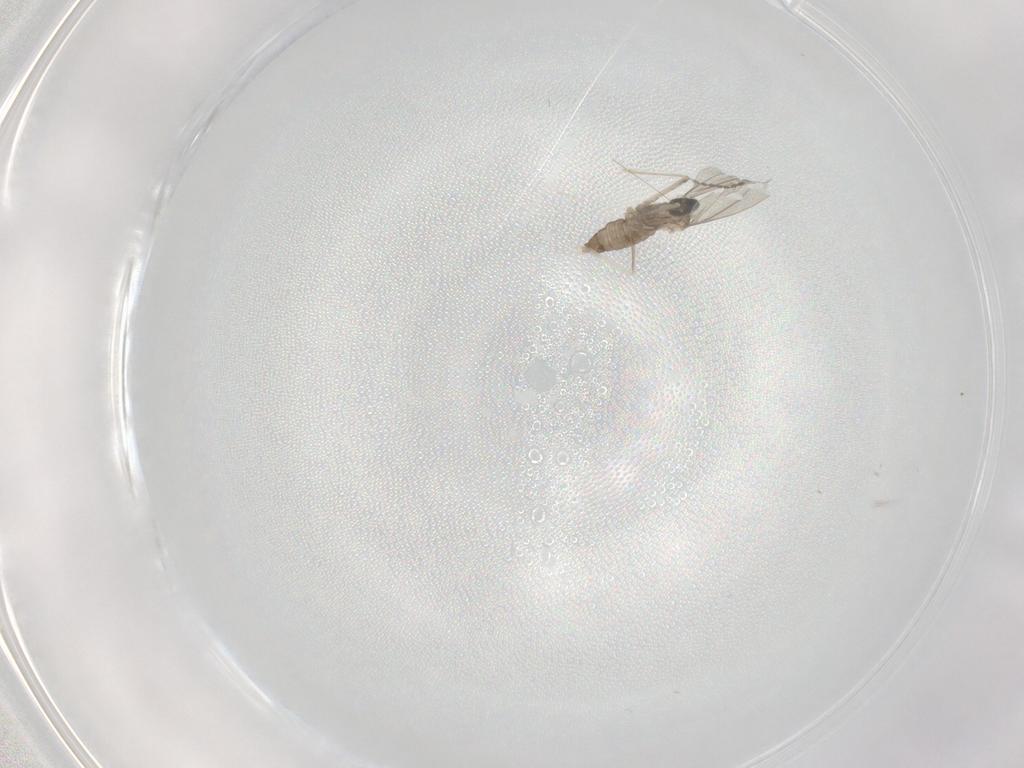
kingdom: Animalia
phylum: Arthropoda
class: Insecta
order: Diptera
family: Cecidomyiidae
